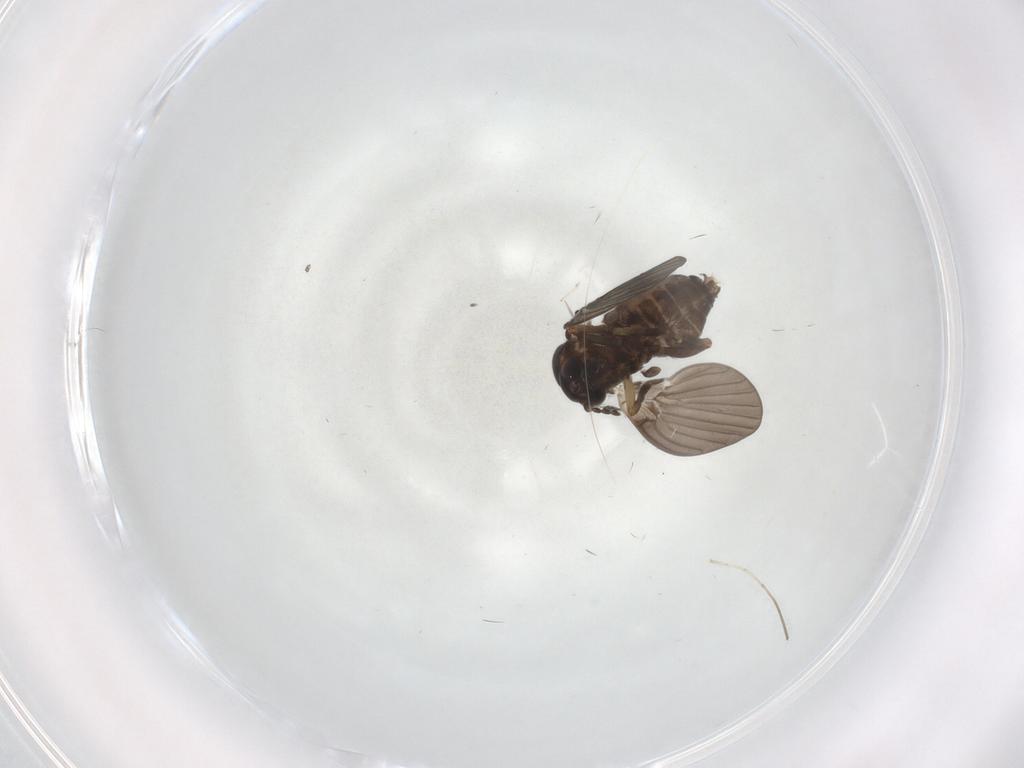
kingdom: Animalia
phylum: Arthropoda
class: Insecta
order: Diptera
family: Psychodidae
